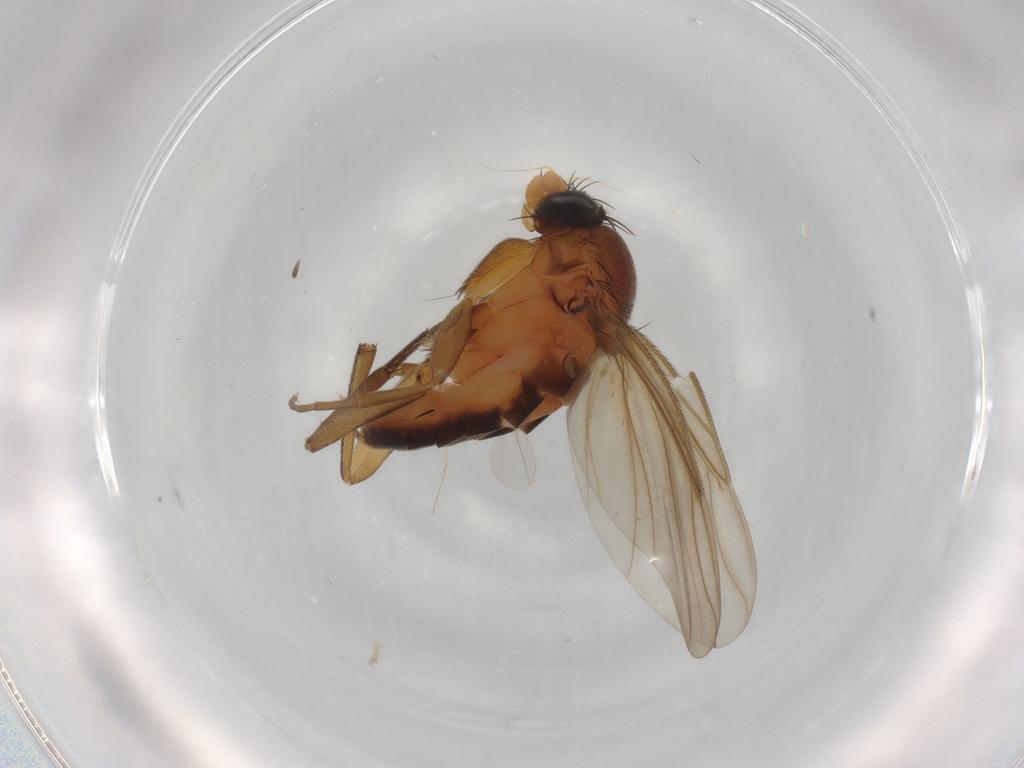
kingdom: Animalia
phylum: Arthropoda
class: Insecta
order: Diptera
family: Cecidomyiidae
